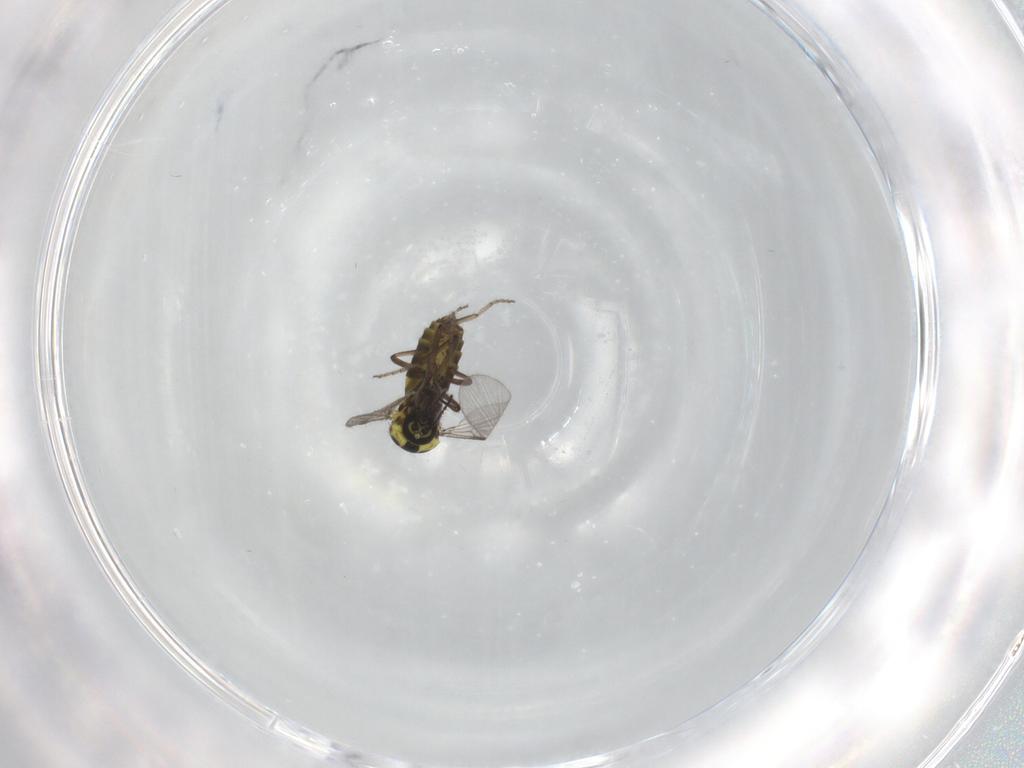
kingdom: Animalia
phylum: Arthropoda
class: Insecta
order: Diptera
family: Ceratopogonidae
